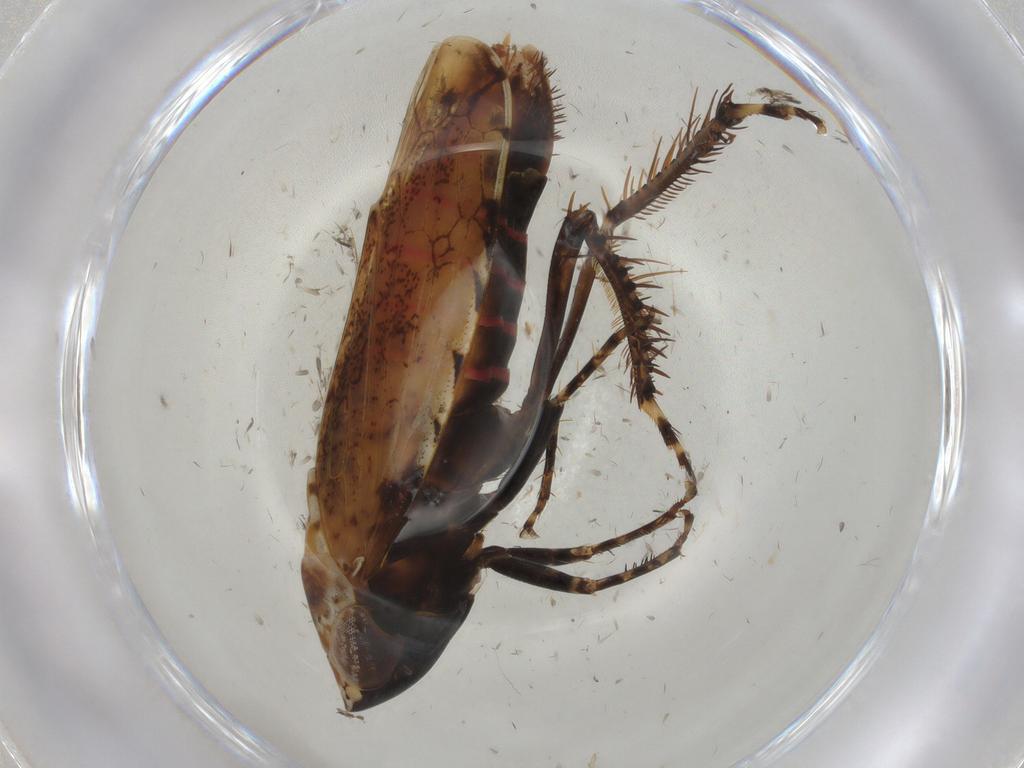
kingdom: Animalia
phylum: Arthropoda
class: Insecta
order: Hemiptera
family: Cicadellidae
